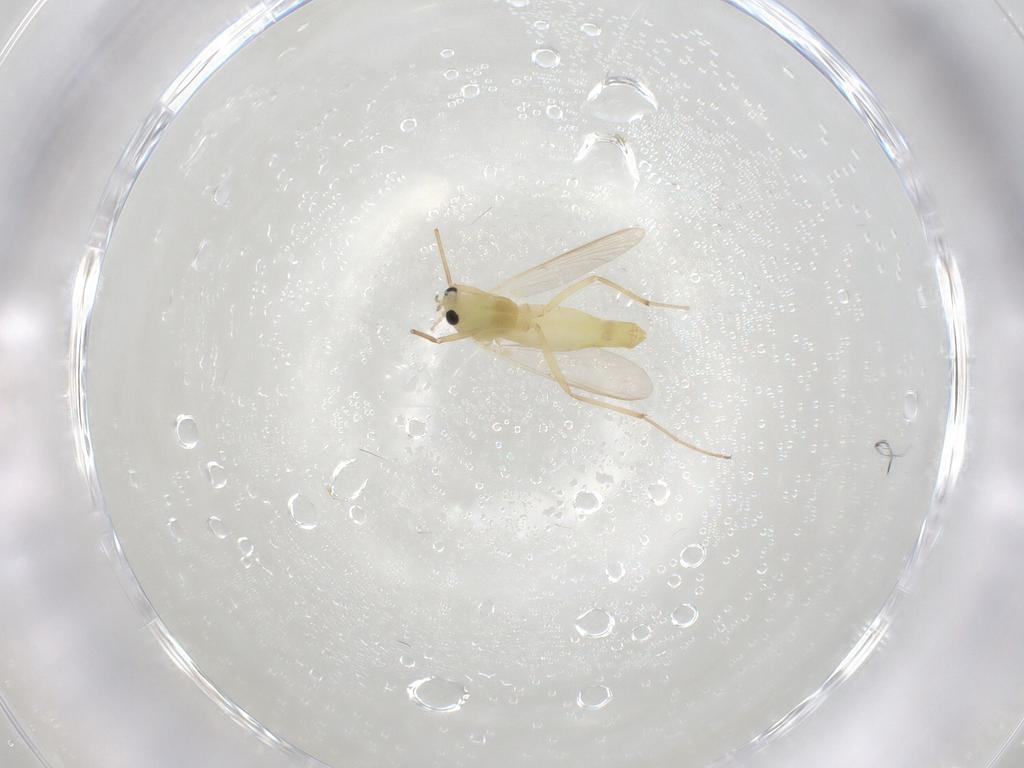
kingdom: Animalia
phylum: Arthropoda
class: Insecta
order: Diptera
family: Chironomidae
